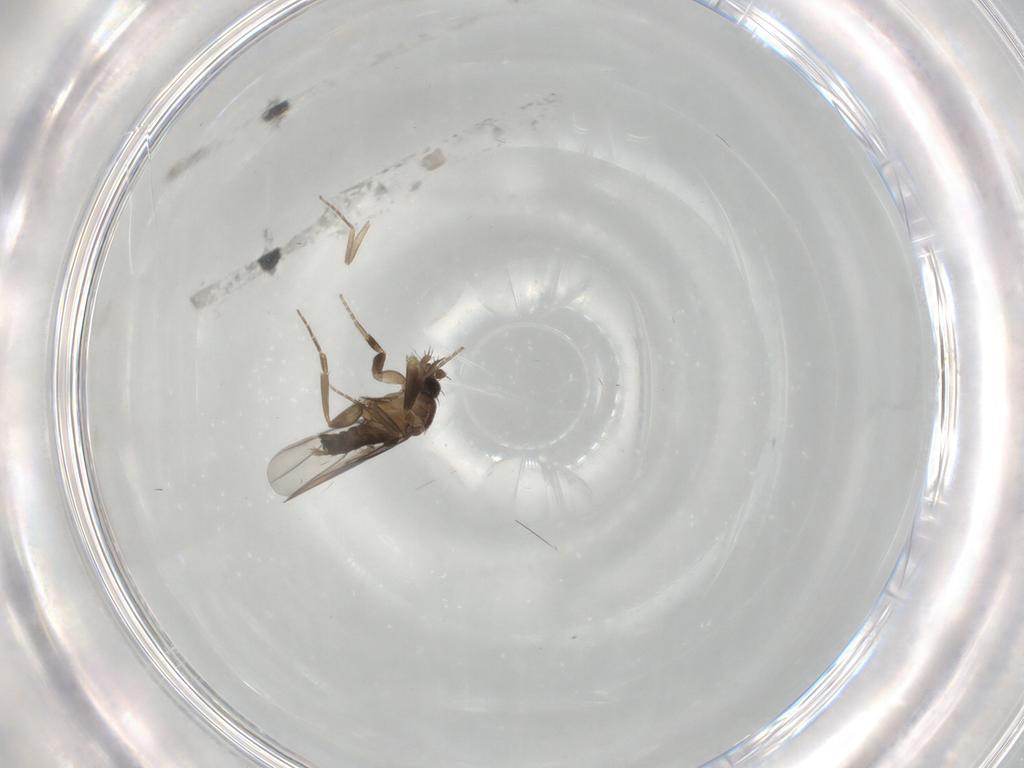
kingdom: Animalia
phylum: Arthropoda
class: Insecta
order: Diptera
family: Phoridae
